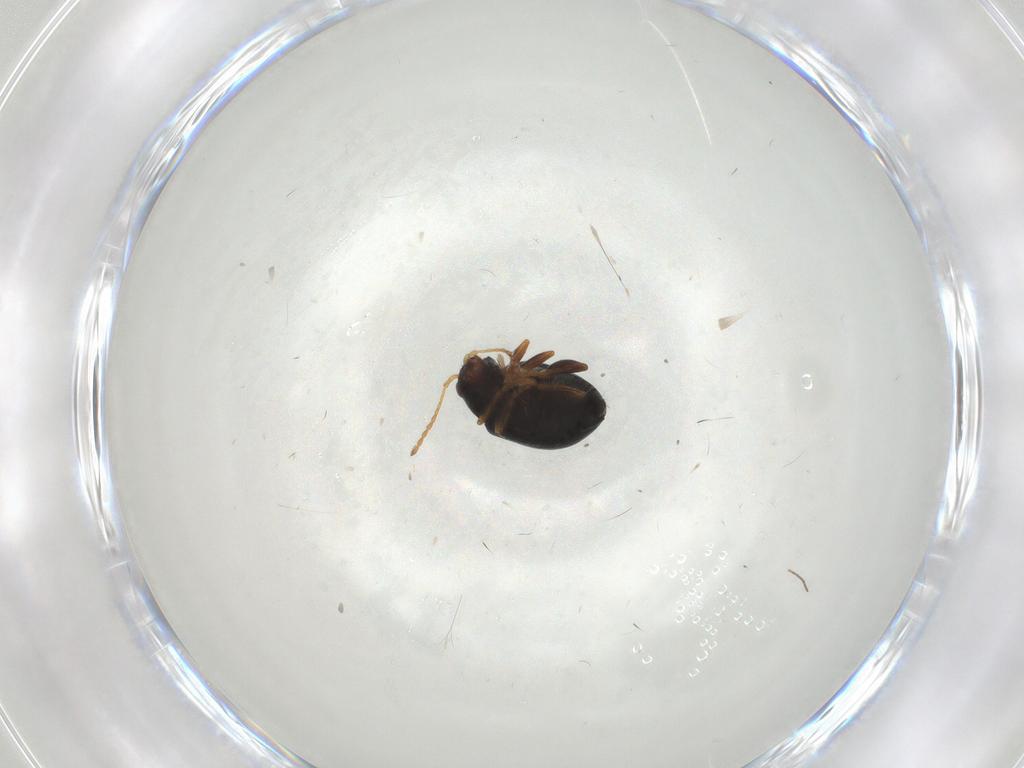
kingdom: Animalia
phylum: Arthropoda
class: Insecta
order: Coleoptera
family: Chrysomelidae
